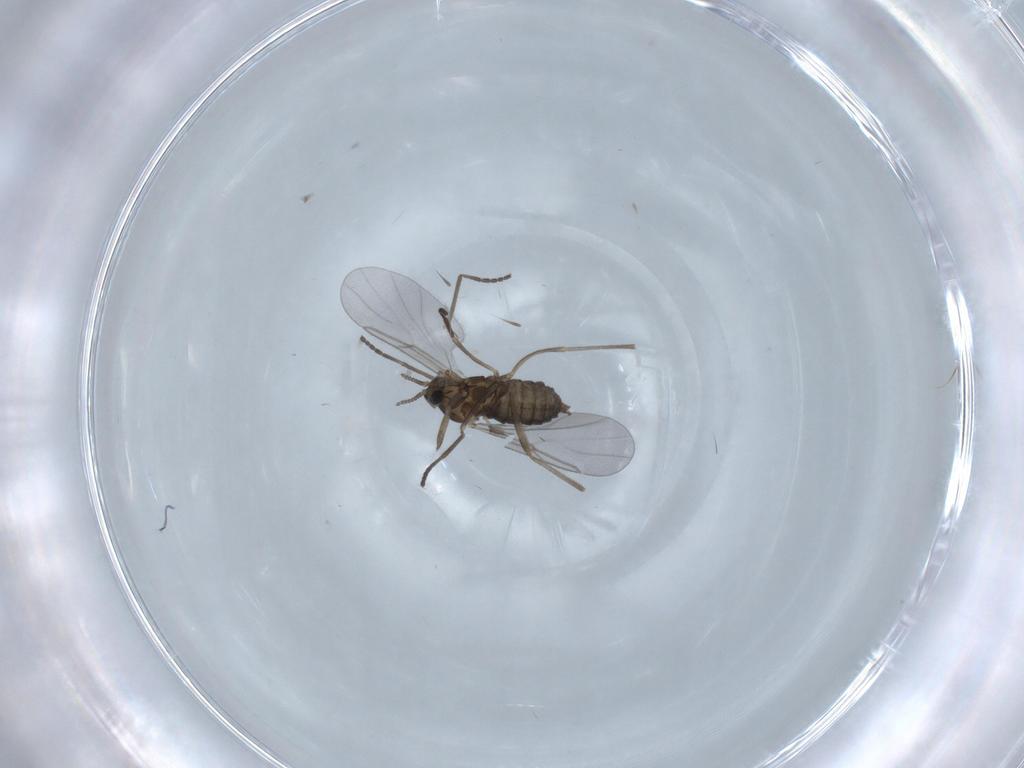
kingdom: Animalia
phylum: Arthropoda
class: Insecta
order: Diptera
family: Cecidomyiidae
